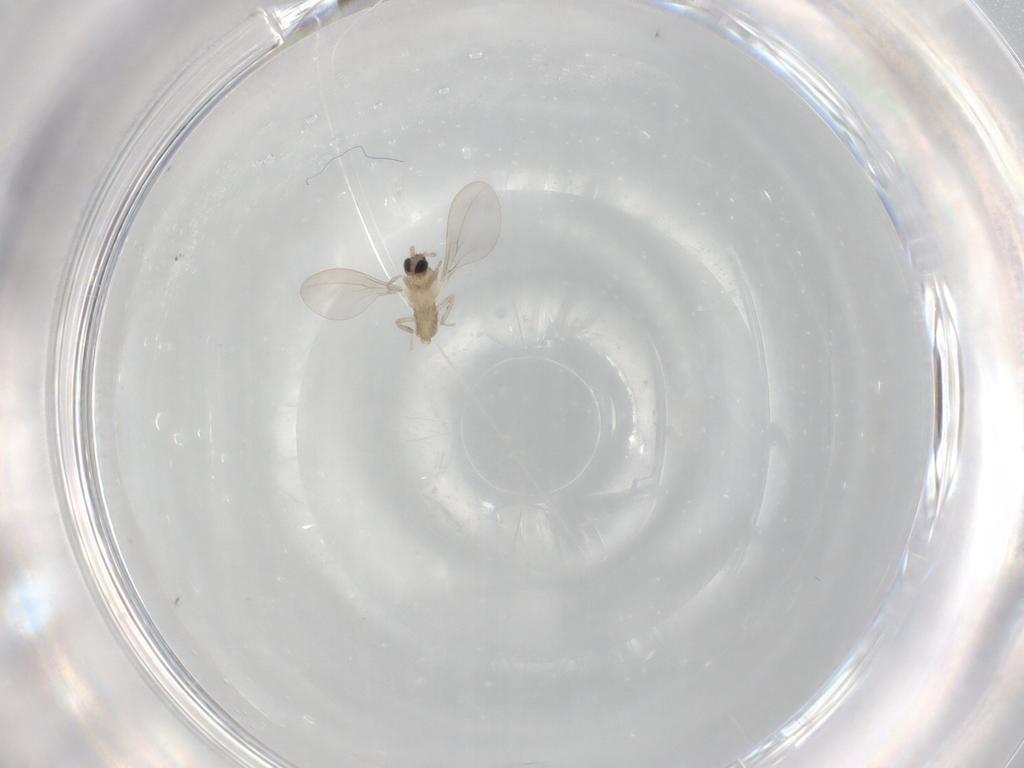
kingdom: Animalia
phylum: Arthropoda
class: Insecta
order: Diptera
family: Cecidomyiidae
